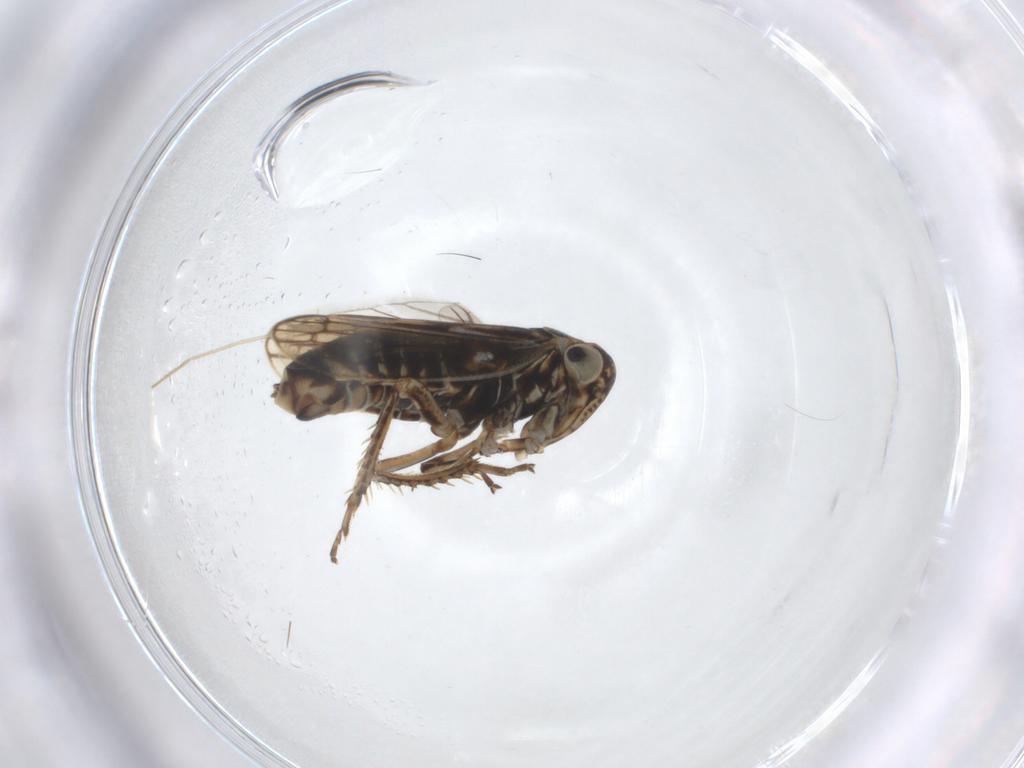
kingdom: Animalia
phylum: Arthropoda
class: Insecta
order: Hemiptera
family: Cicadellidae
